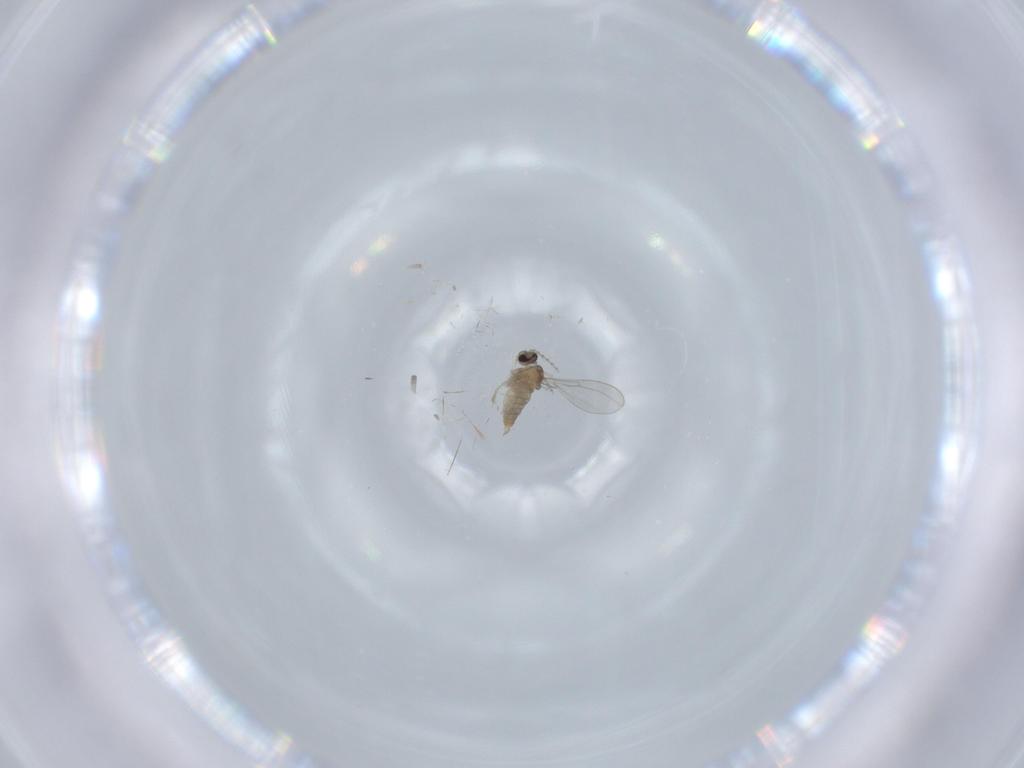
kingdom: Animalia
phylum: Arthropoda
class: Insecta
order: Diptera
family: Cecidomyiidae
